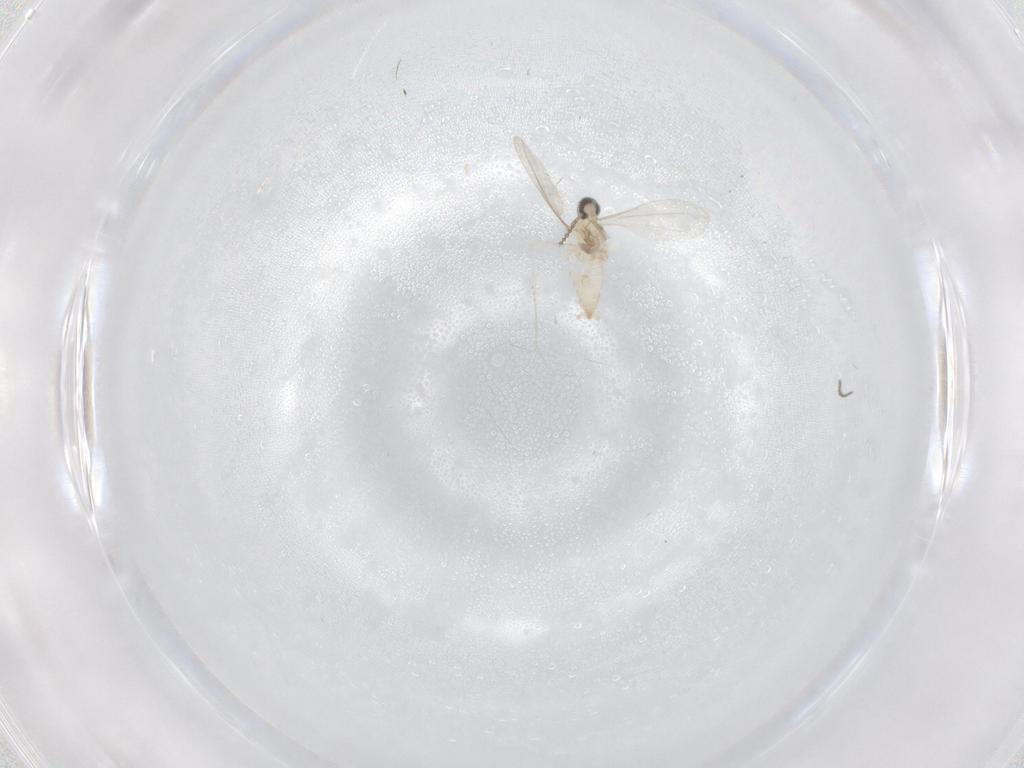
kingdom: Animalia
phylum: Arthropoda
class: Insecta
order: Diptera
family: Cecidomyiidae
